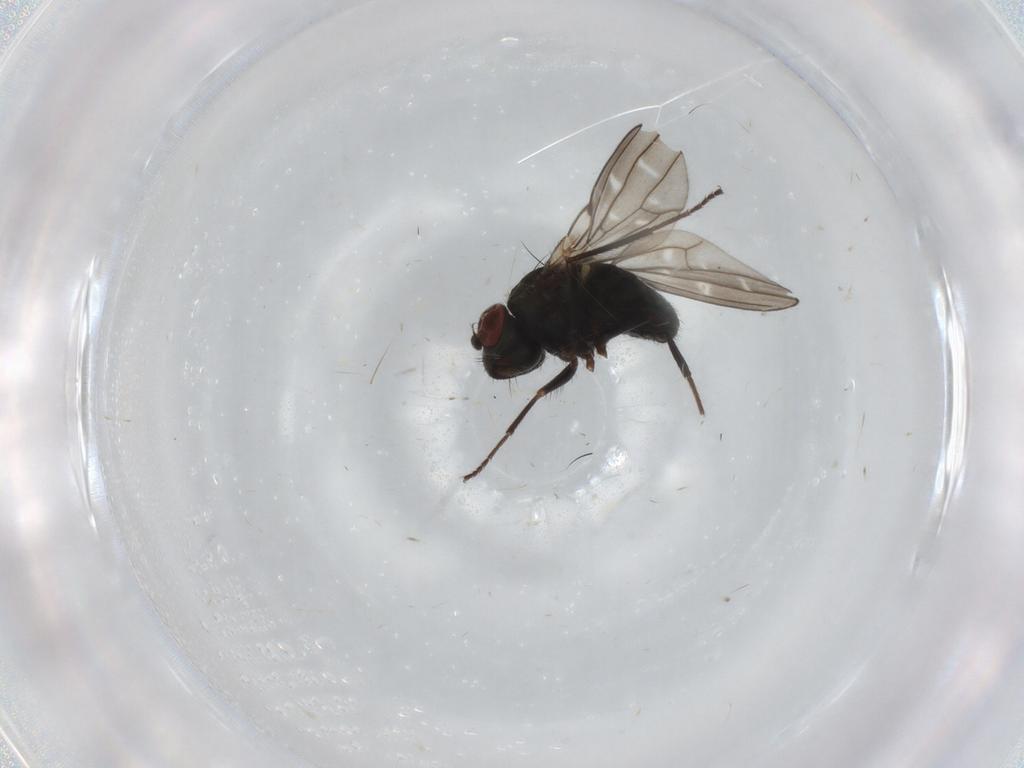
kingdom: Animalia
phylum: Arthropoda
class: Insecta
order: Diptera
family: Ephydridae
